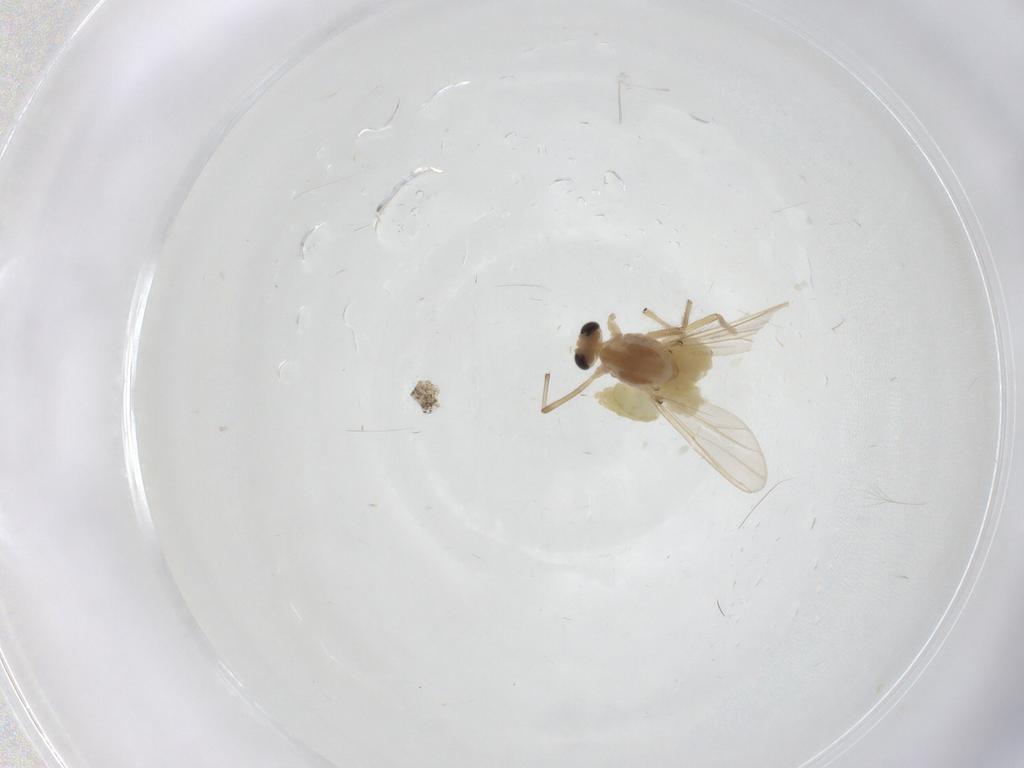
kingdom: Animalia
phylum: Arthropoda
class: Insecta
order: Diptera
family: Chironomidae
